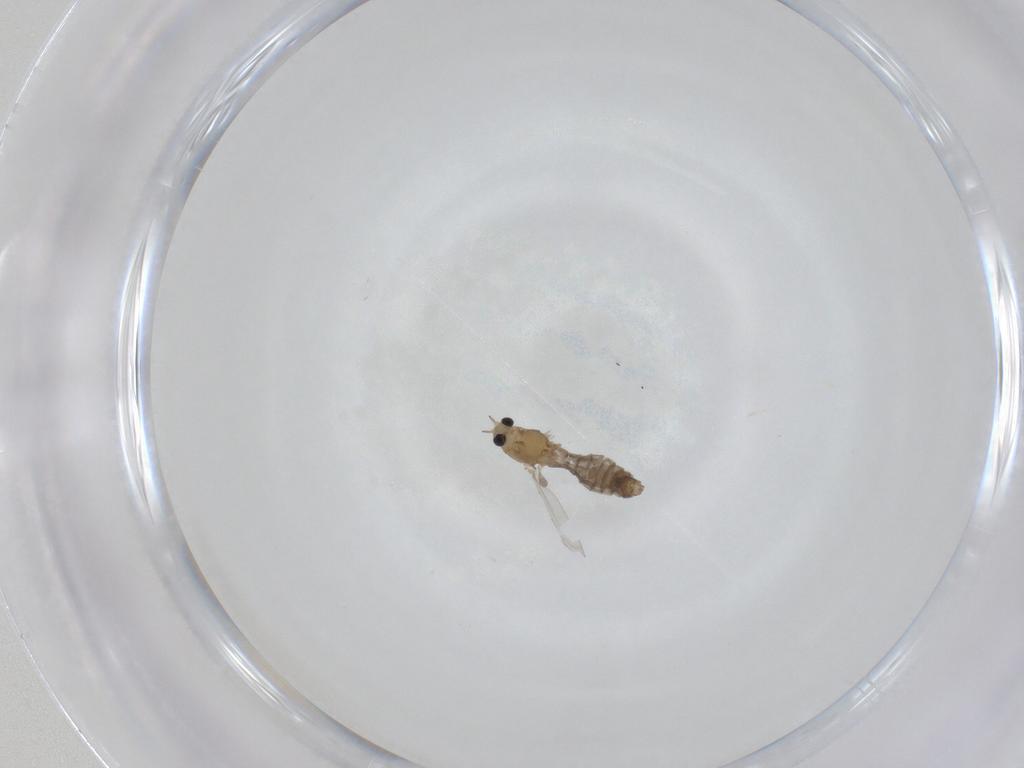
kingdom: Animalia
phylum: Arthropoda
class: Insecta
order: Diptera
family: Chironomidae
